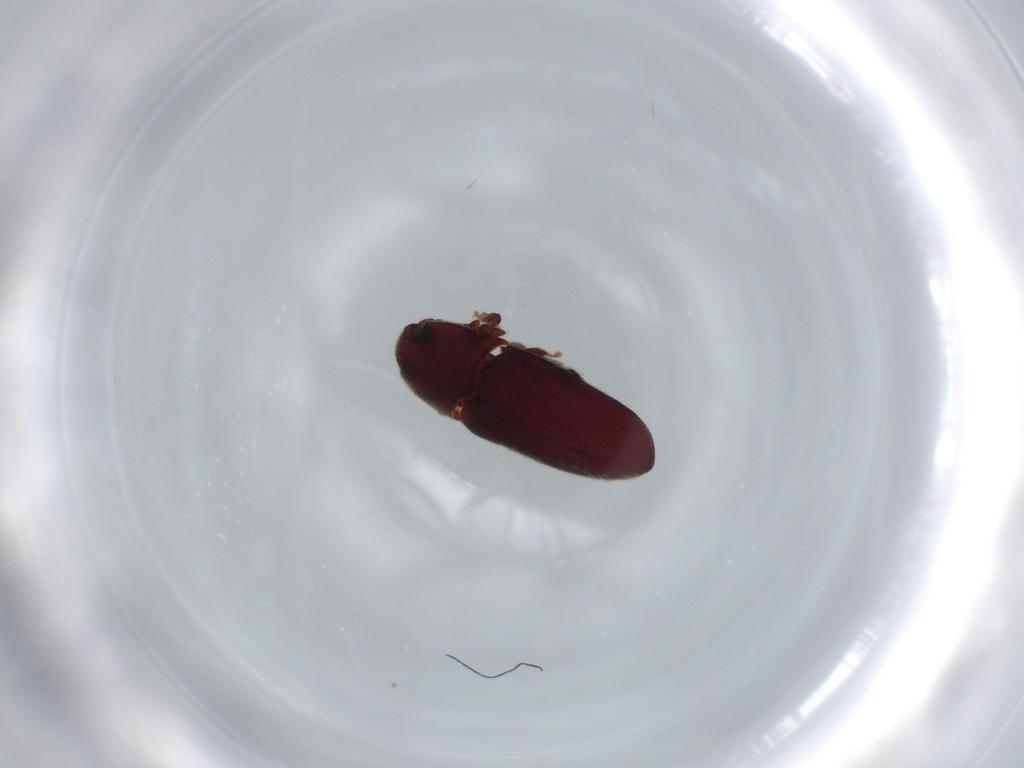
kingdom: Animalia
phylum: Arthropoda
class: Insecta
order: Coleoptera
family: Throscidae
